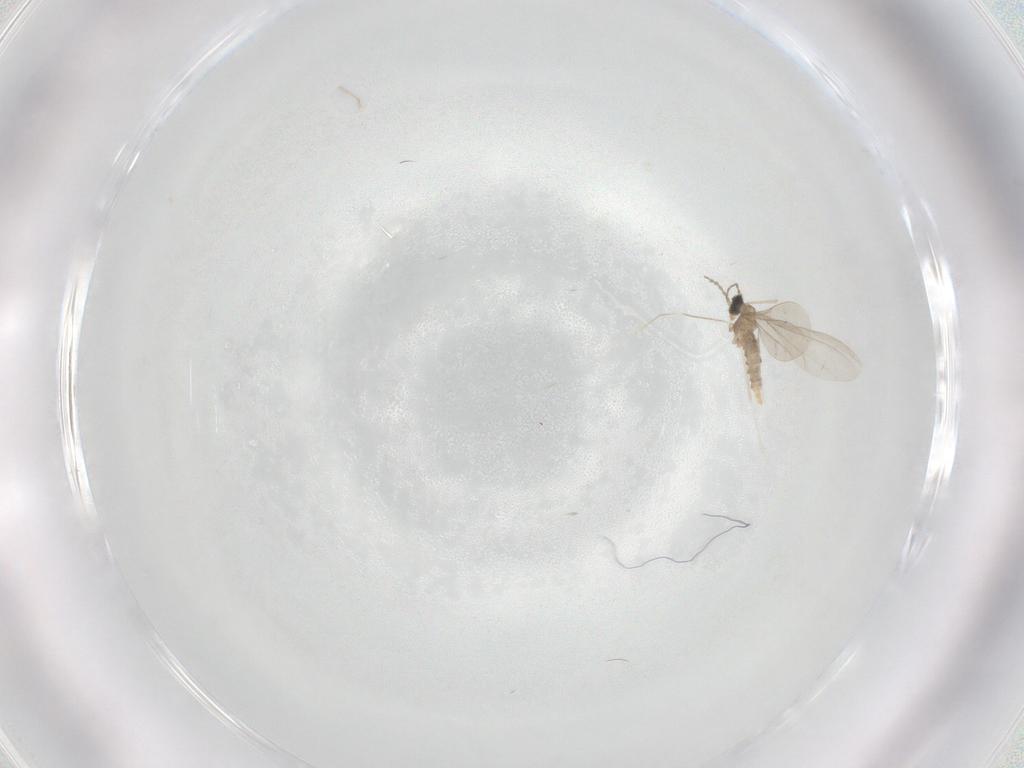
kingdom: Animalia
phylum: Arthropoda
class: Insecta
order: Diptera
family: Cecidomyiidae
